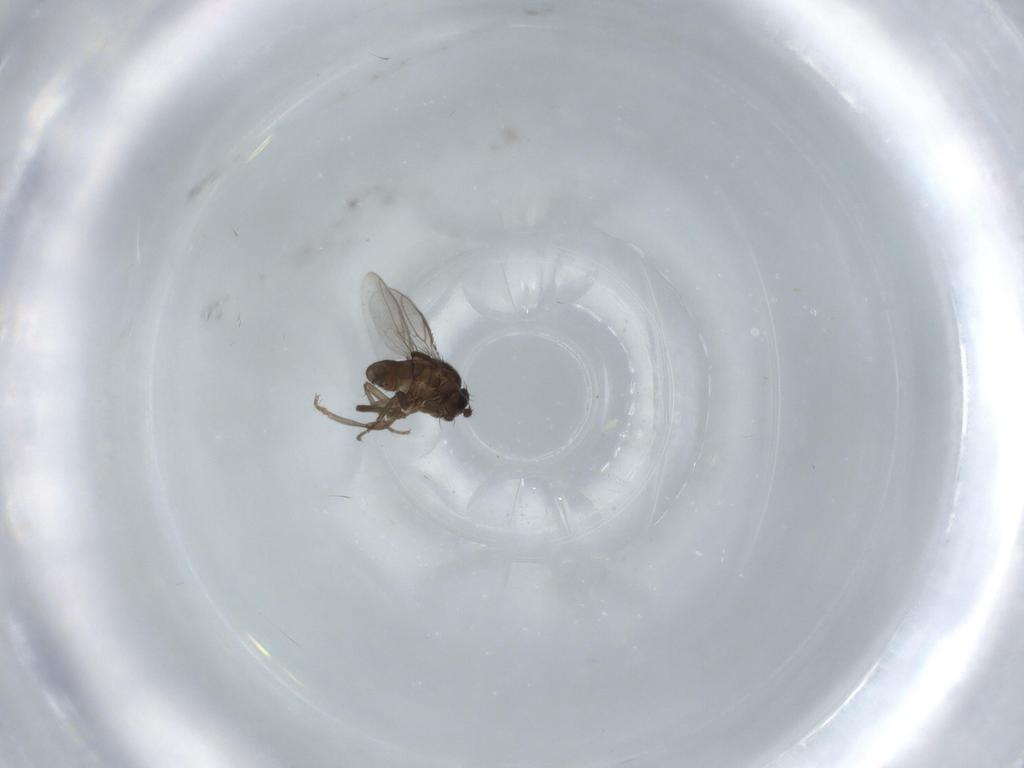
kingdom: Animalia
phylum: Arthropoda
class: Insecta
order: Diptera
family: Sphaeroceridae
